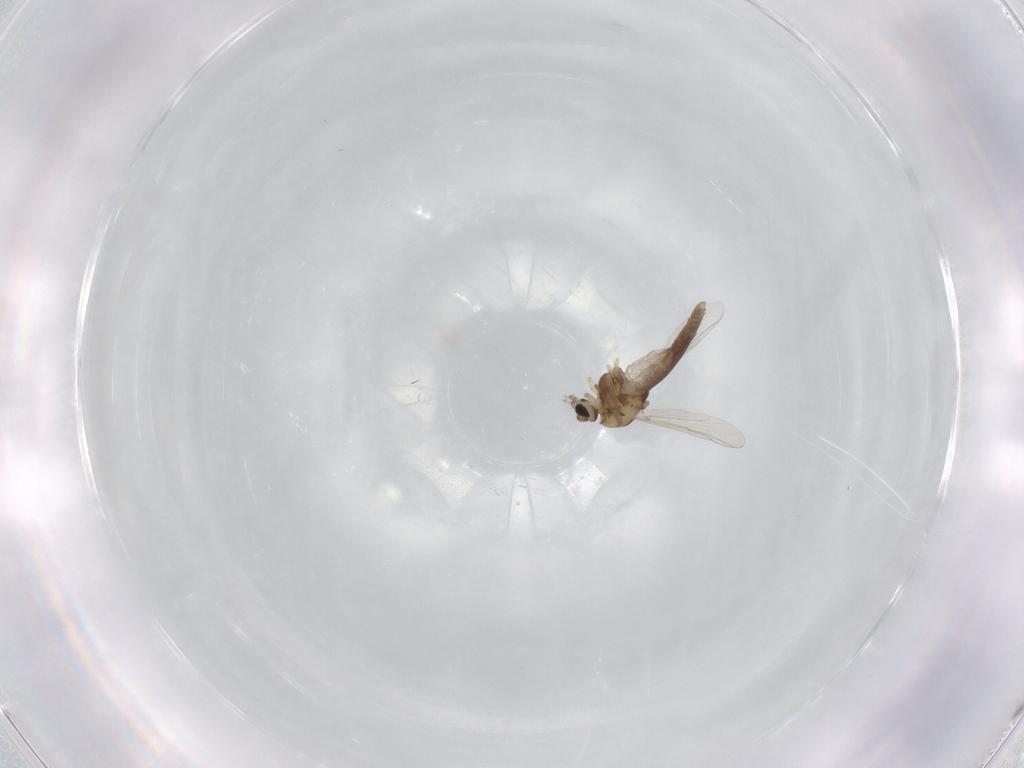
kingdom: Animalia
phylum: Arthropoda
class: Insecta
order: Diptera
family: Chironomidae
